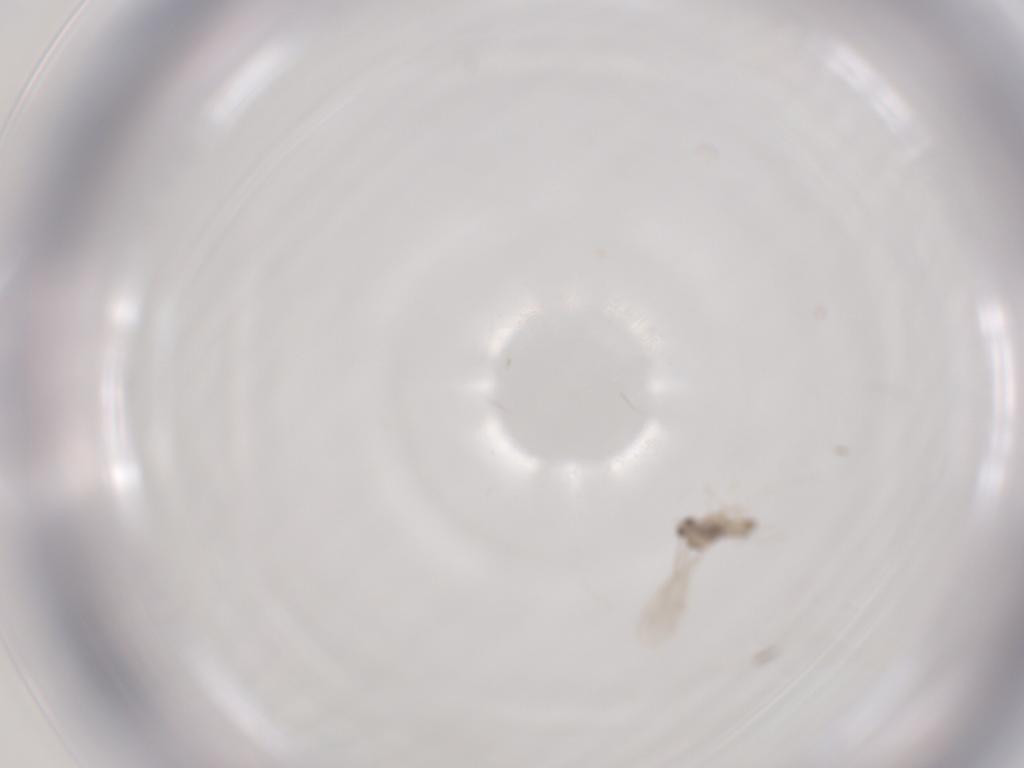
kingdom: Animalia
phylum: Arthropoda
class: Insecta
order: Diptera
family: Cecidomyiidae
